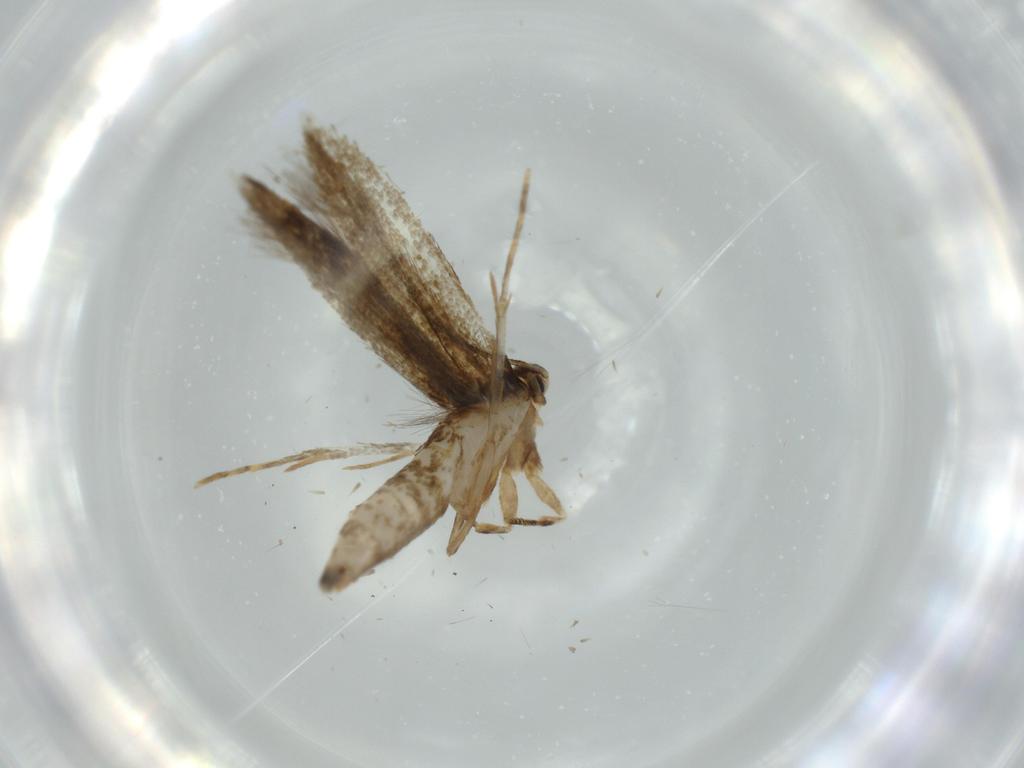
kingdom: Animalia
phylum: Arthropoda
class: Insecta
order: Lepidoptera
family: Tineidae
